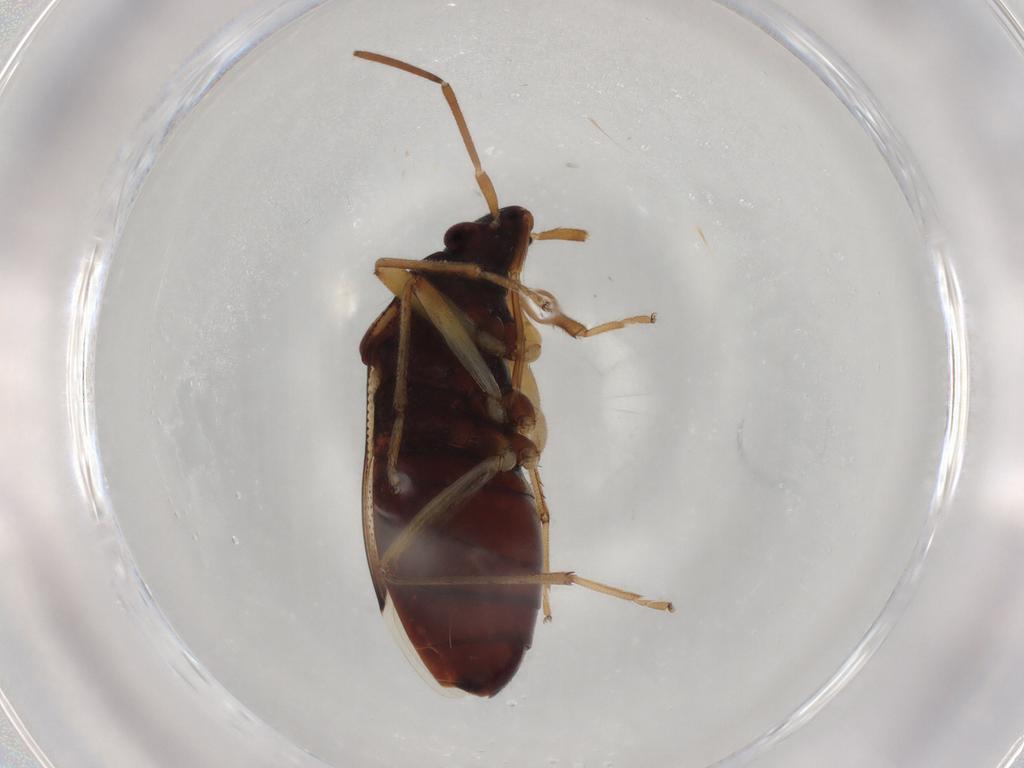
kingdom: Animalia
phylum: Arthropoda
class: Insecta
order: Hemiptera
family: Rhyparochromidae
